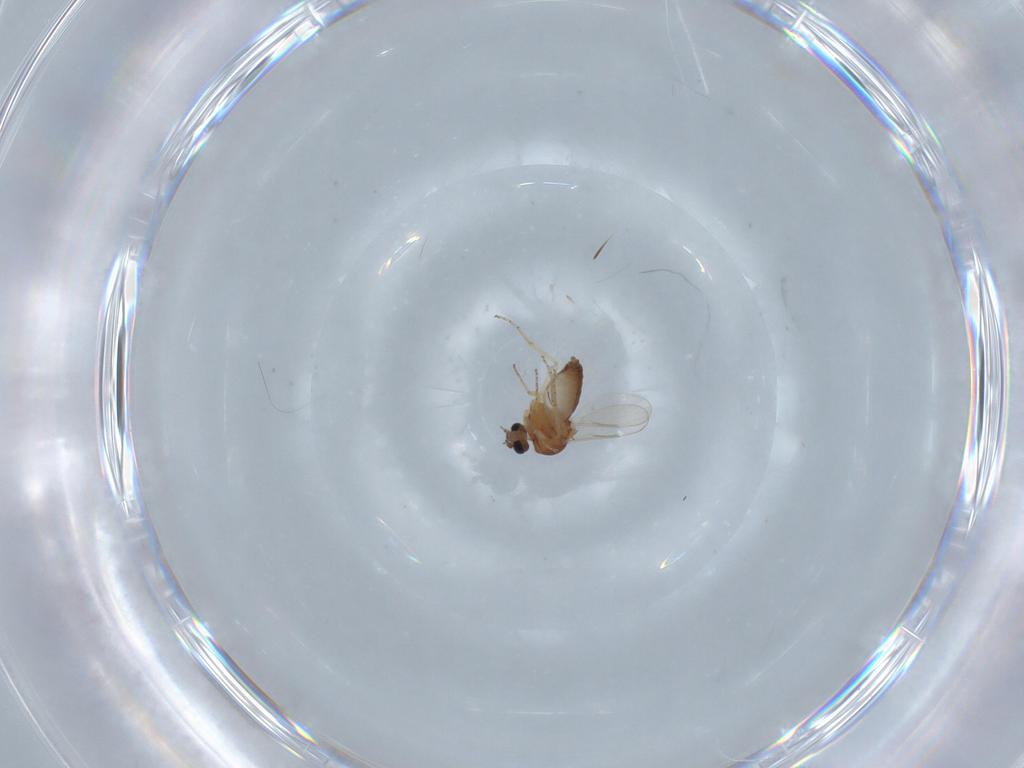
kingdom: Animalia
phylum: Arthropoda
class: Insecta
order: Diptera
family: Ceratopogonidae
